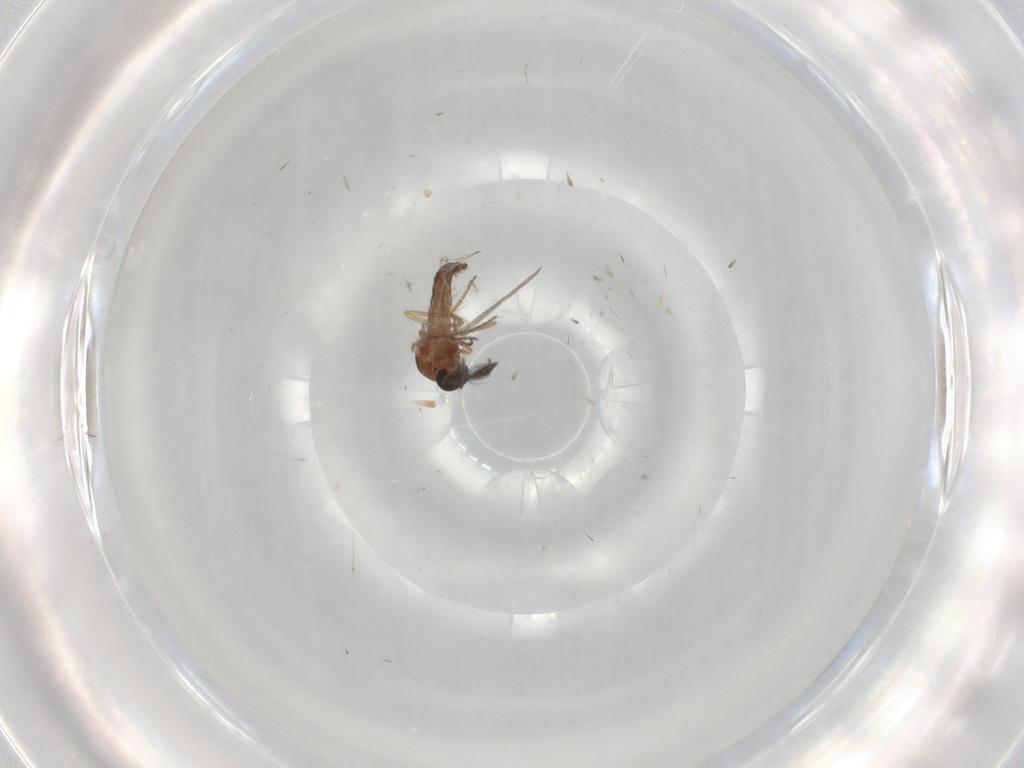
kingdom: Animalia
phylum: Arthropoda
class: Insecta
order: Diptera
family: Ceratopogonidae
